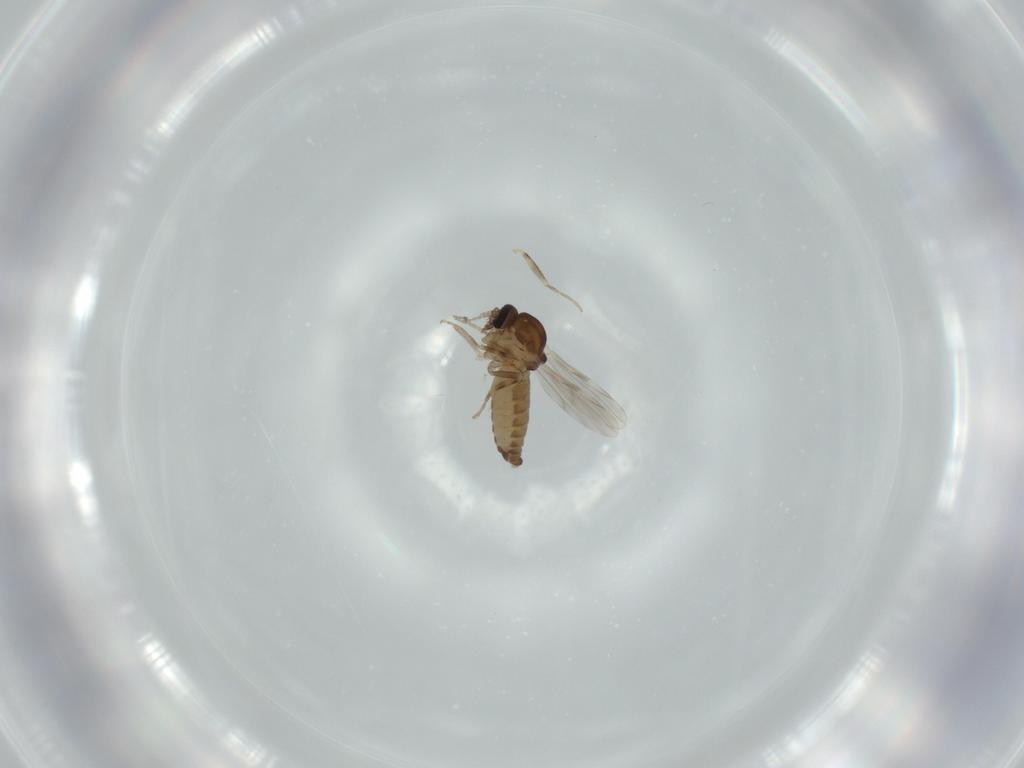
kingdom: Animalia
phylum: Arthropoda
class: Insecta
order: Diptera
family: Ceratopogonidae
